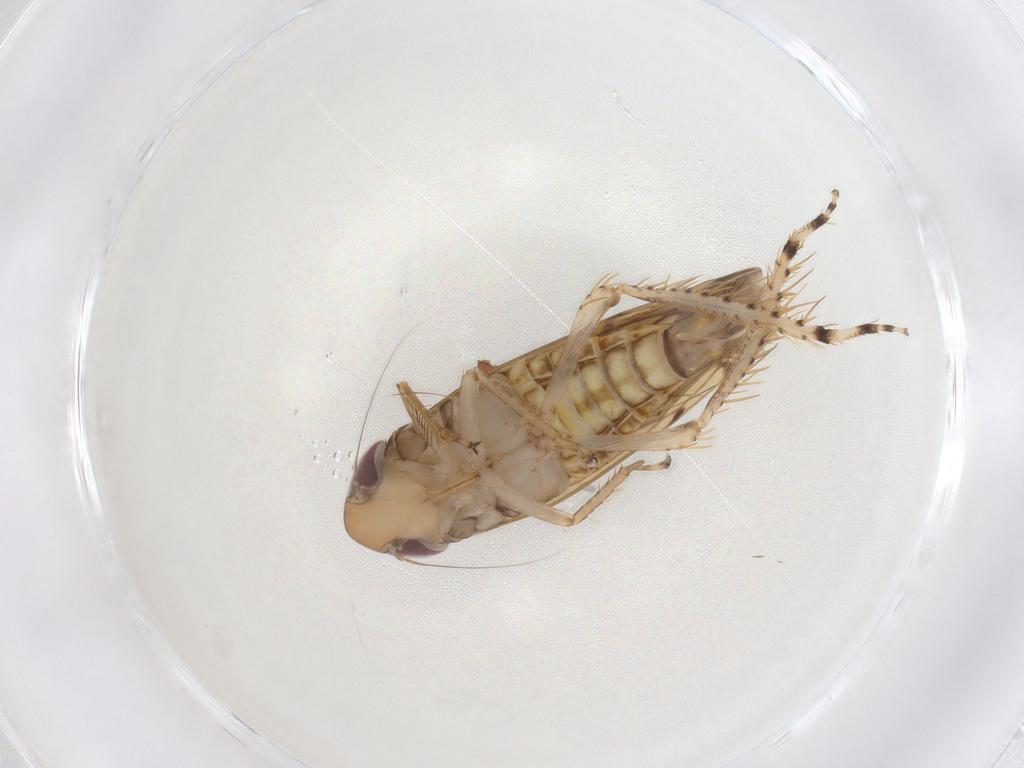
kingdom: Animalia
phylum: Arthropoda
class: Insecta
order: Hemiptera
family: Cicadellidae
